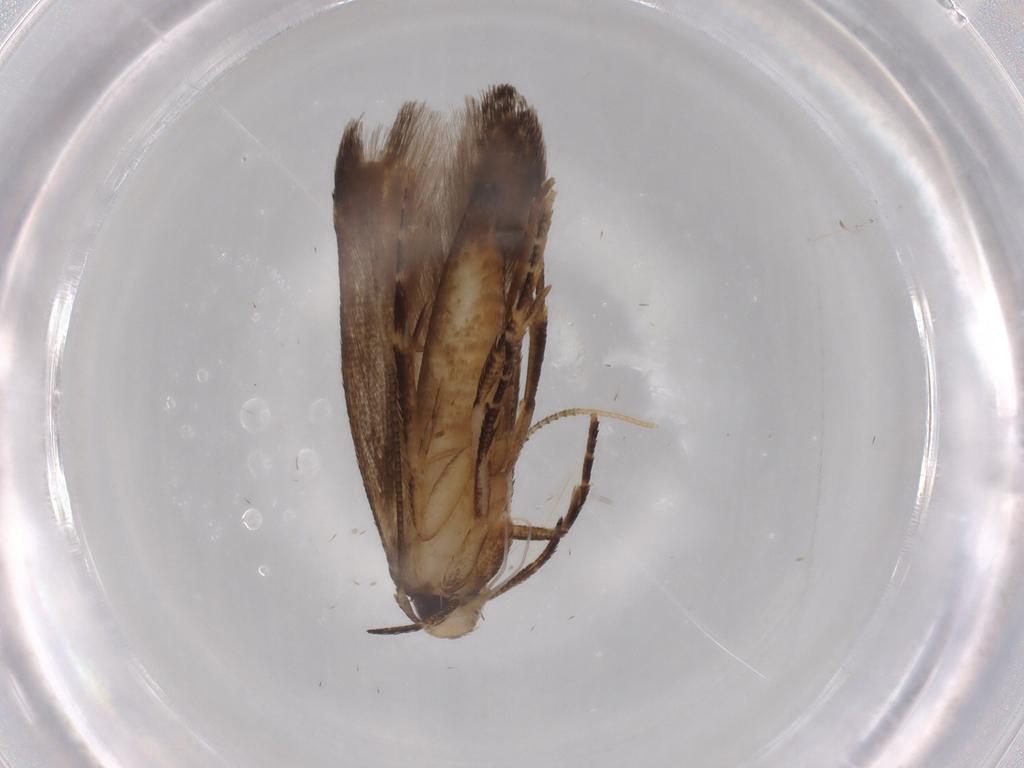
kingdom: Animalia
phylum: Arthropoda
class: Insecta
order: Lepidoptera
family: Cosmopterigidae
